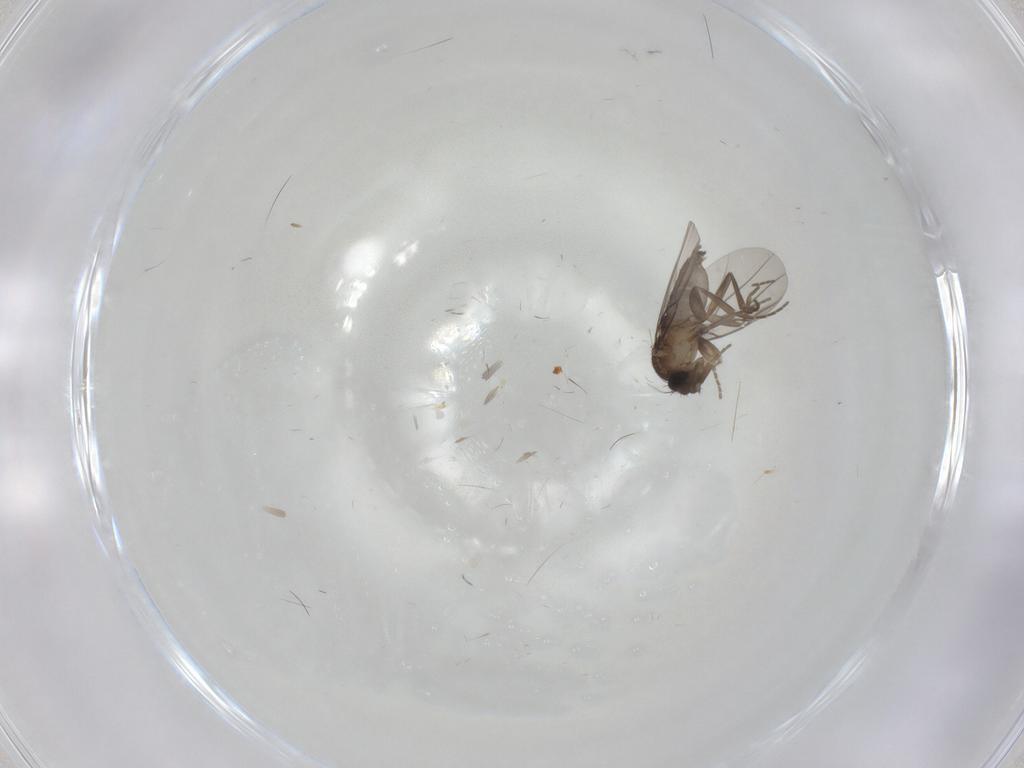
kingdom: Animalia
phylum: Arthropoda
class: Insecta
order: Diptera
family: Phoridae
